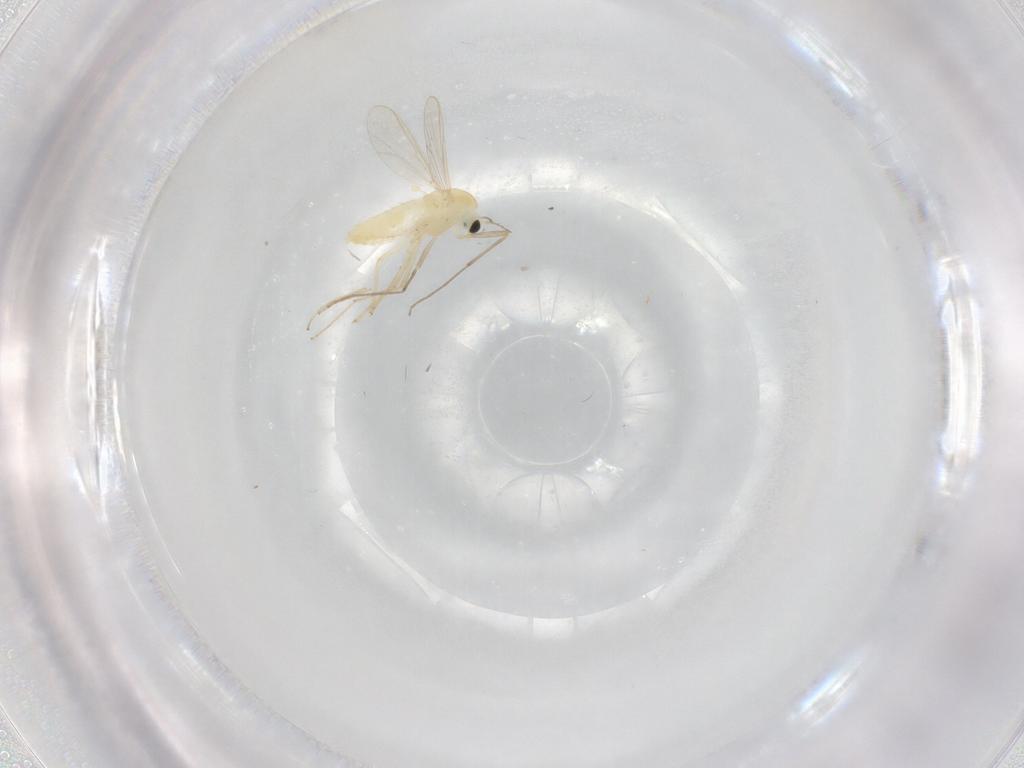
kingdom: Animalia
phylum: Arthropoda
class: Insecta
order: Diptera
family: Chironomidae
